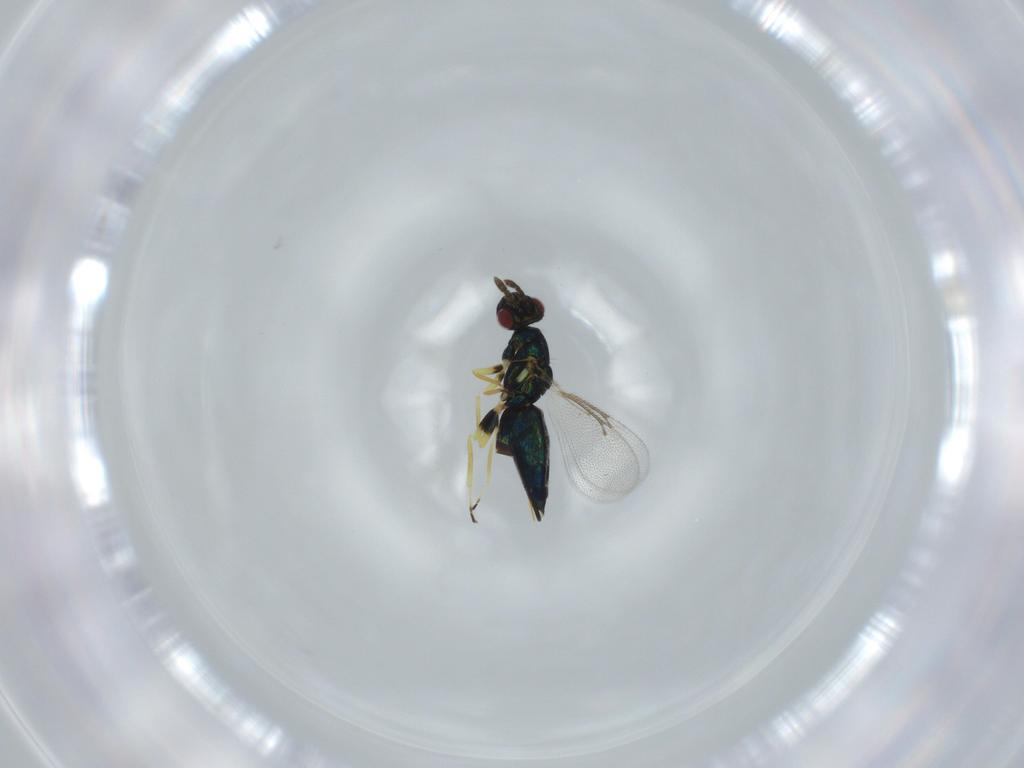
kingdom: Animalia
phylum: Arthropoda
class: Insecta
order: Hymenoptera
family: Eulophidae
